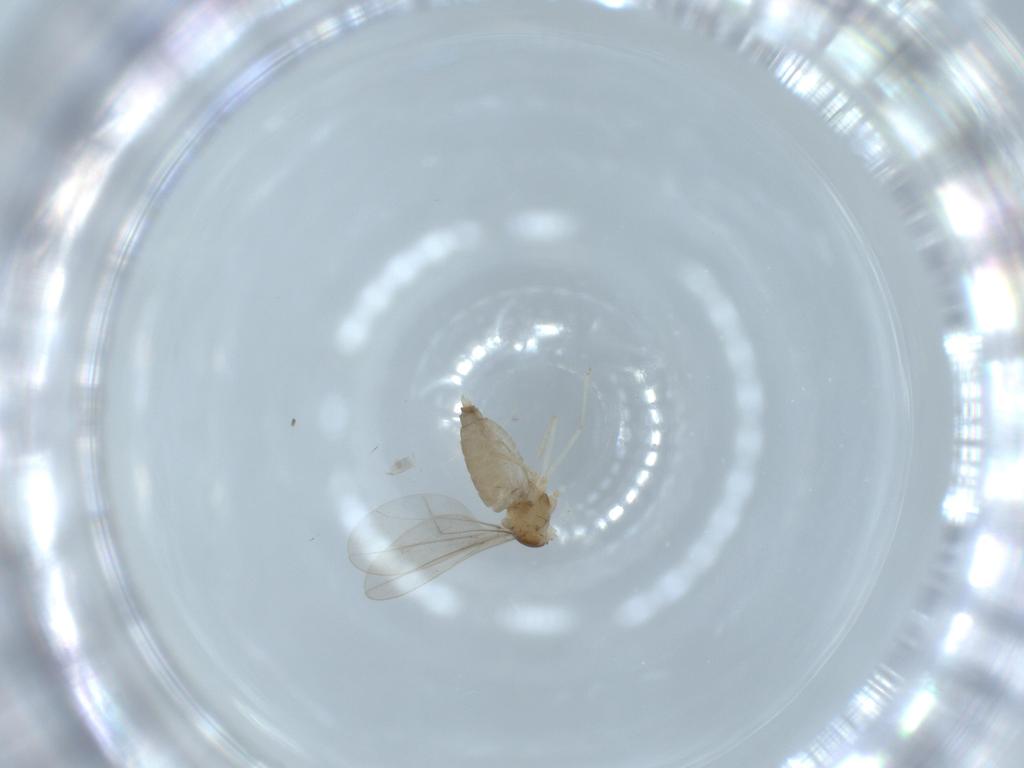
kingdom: Animalia
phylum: Arthropoda
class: Insecta
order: Diptera
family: Cecidomyiidae
